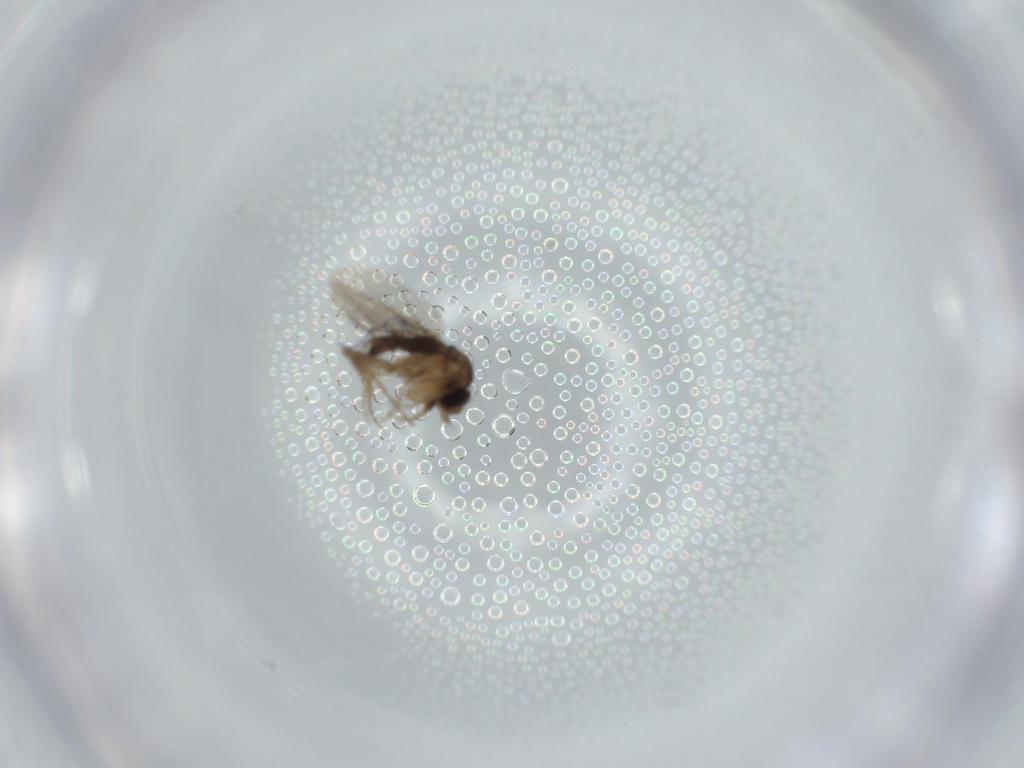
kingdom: Animalia
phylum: Arthropoda
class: Insecta
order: Diptera
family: Phoridae
